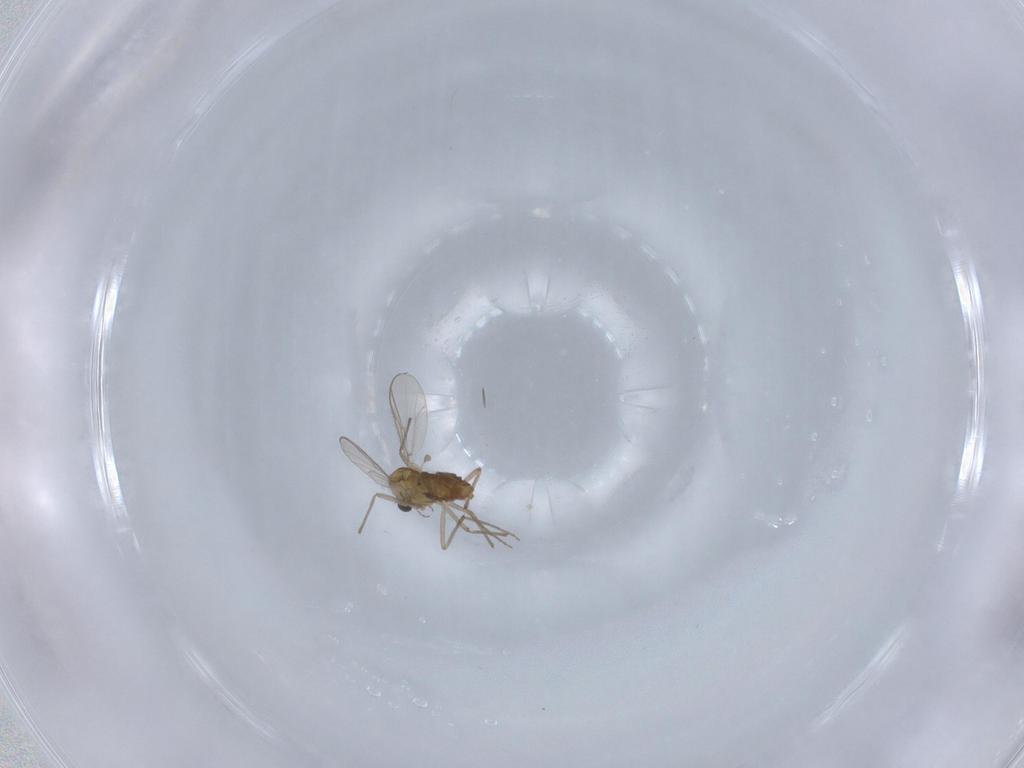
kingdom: Animalia
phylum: Arthropoda
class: Insecta
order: Diptera
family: Chironomidae
